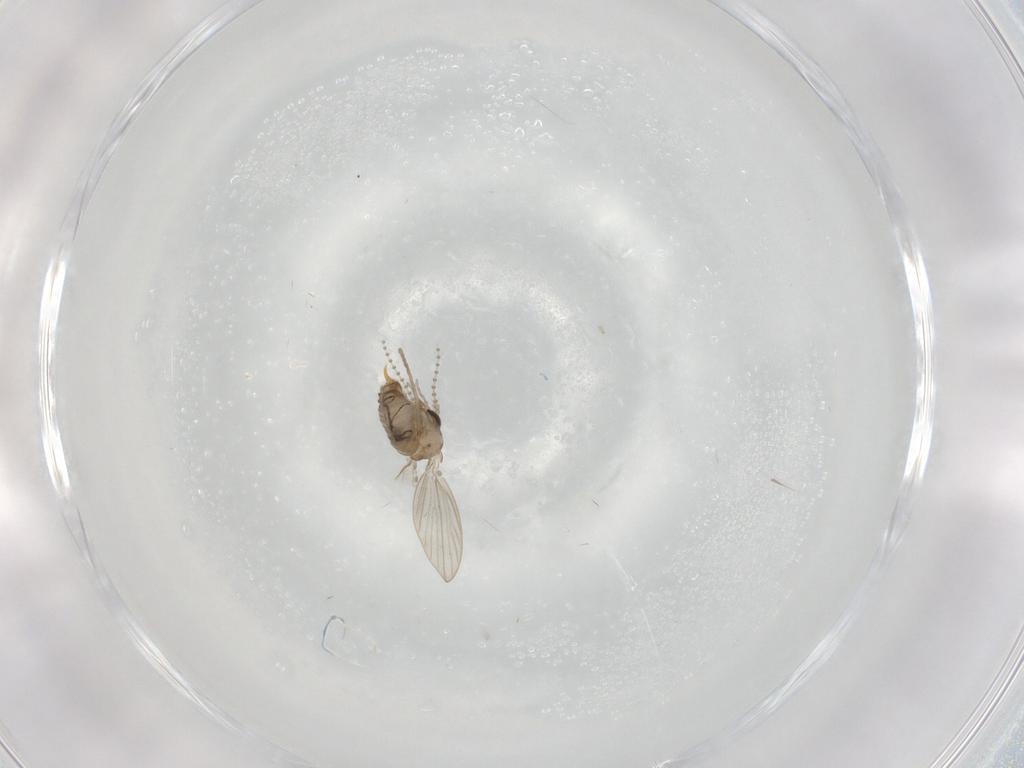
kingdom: Animalia
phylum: Arthropoda
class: Insecta
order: Diptera
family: Psychodidae
